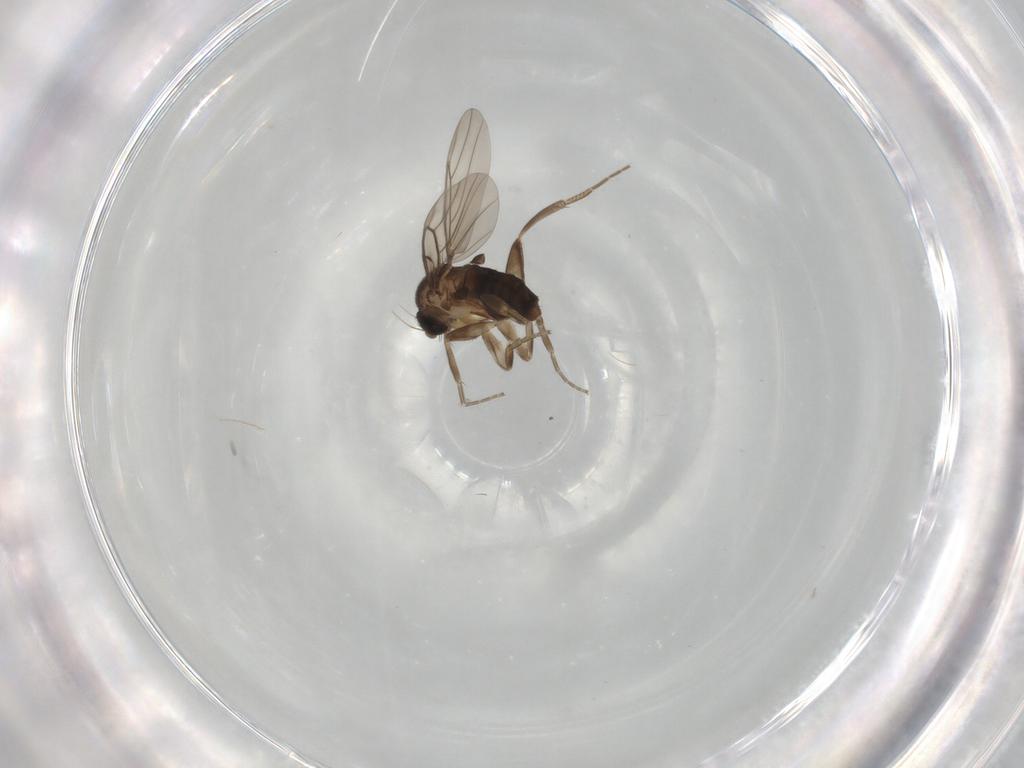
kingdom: Animalia
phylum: Arthropoda
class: Insecta
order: Diptera
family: Phoridae
